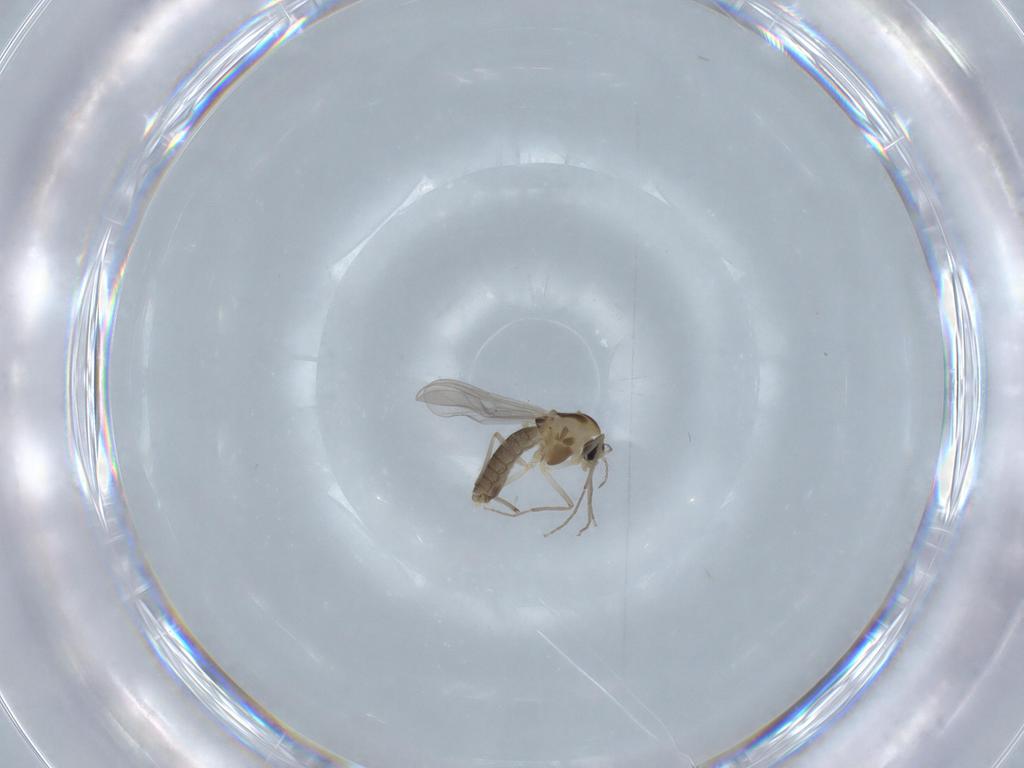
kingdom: Animalia
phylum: Arthropoda
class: Insecta
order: Diptera
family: Chironomidae
